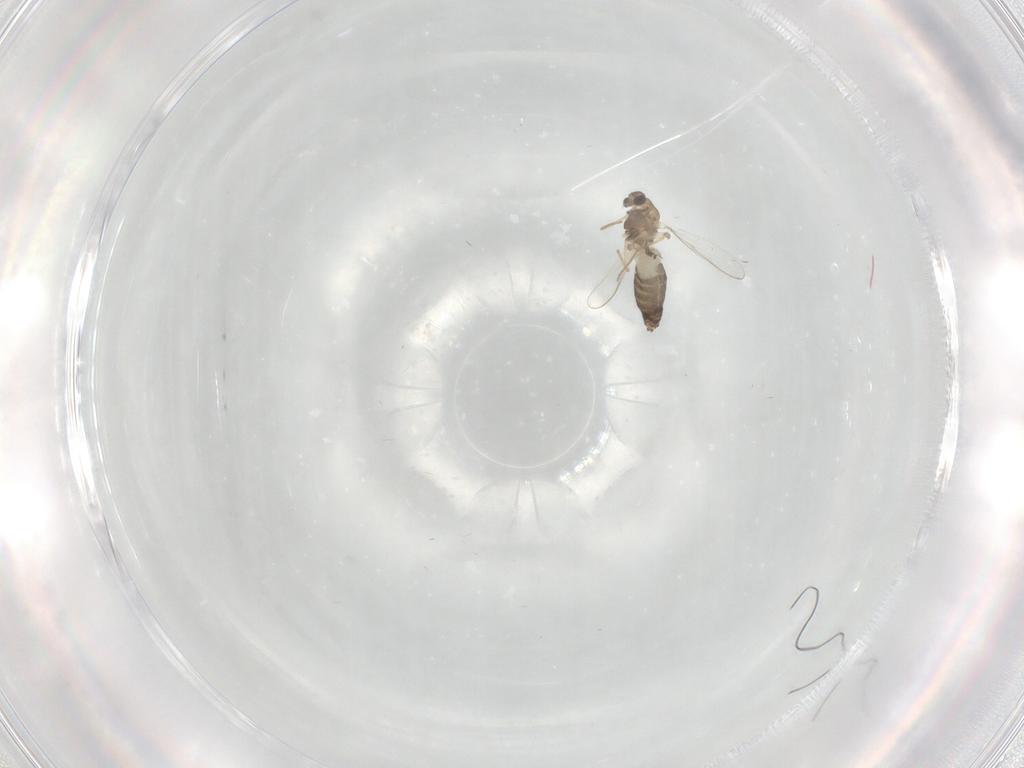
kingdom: Animalia
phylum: Arthropoda
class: Insecta
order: Diptera
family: Chironomidae
